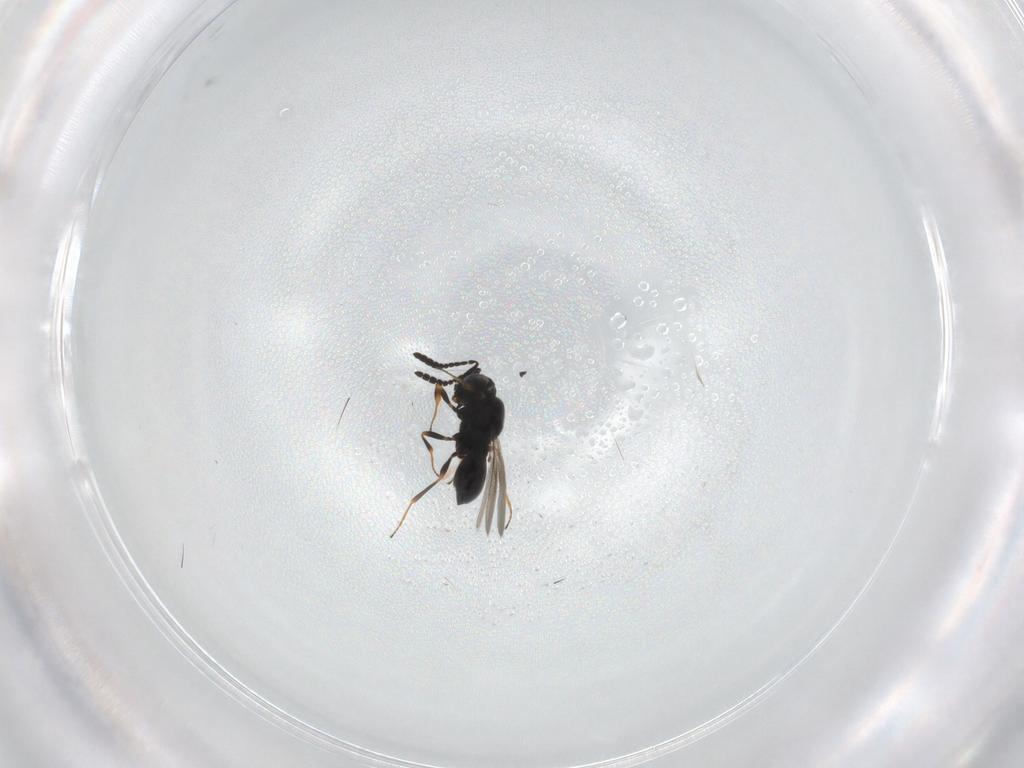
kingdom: Animalia
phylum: Arthropoda
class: Insecta
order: Hymenoptera
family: Scelionidae
